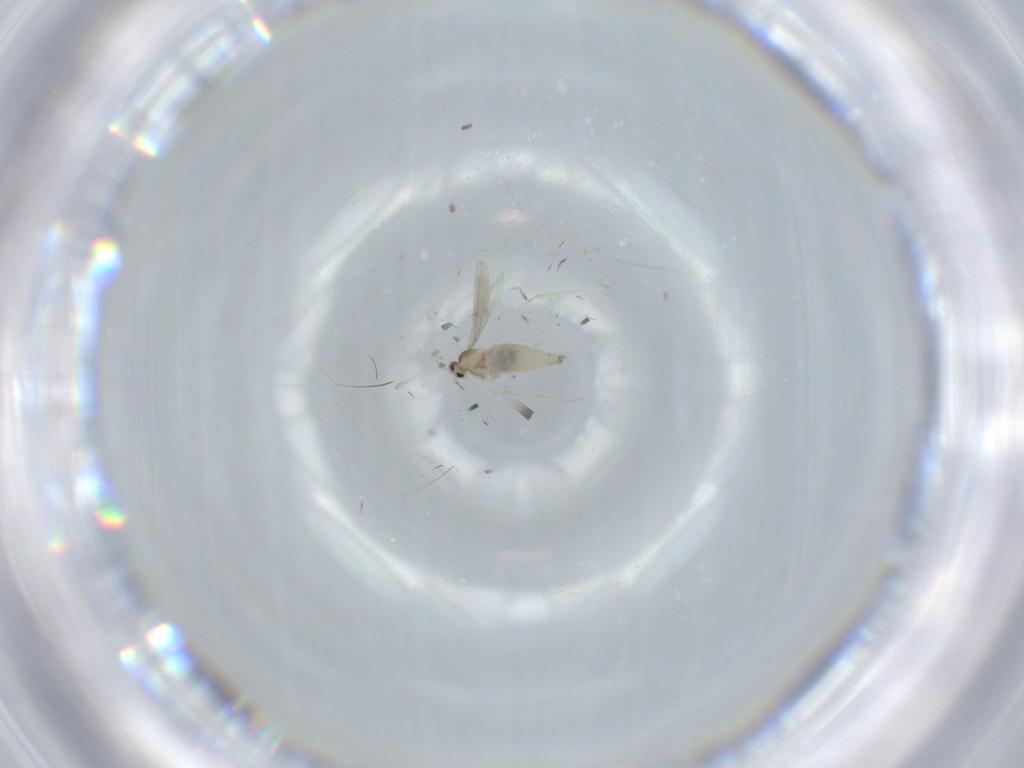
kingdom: Animalia
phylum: Arthropoda
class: Insecta
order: Diptera
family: Cecidomyiidae
